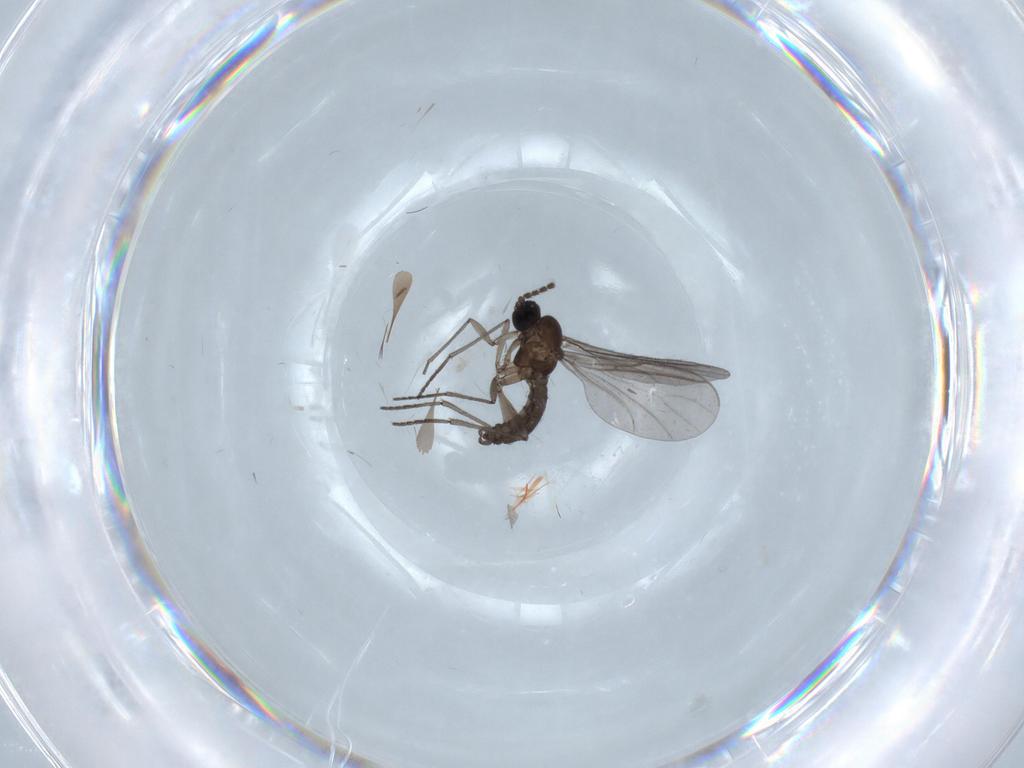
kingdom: Animalia
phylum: Arthropoda
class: Insecta
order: Diptera
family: Sciaridae
